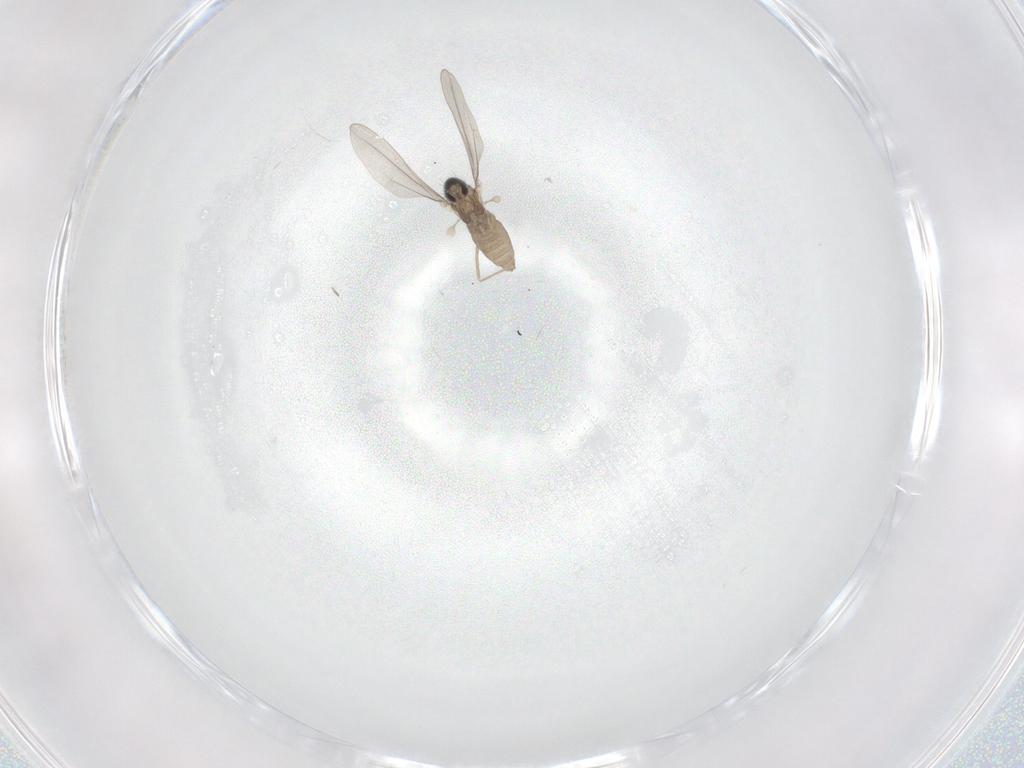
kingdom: Animalia
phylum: Arthropoda
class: Insecta
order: Diptera
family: Cecidomyiidae
